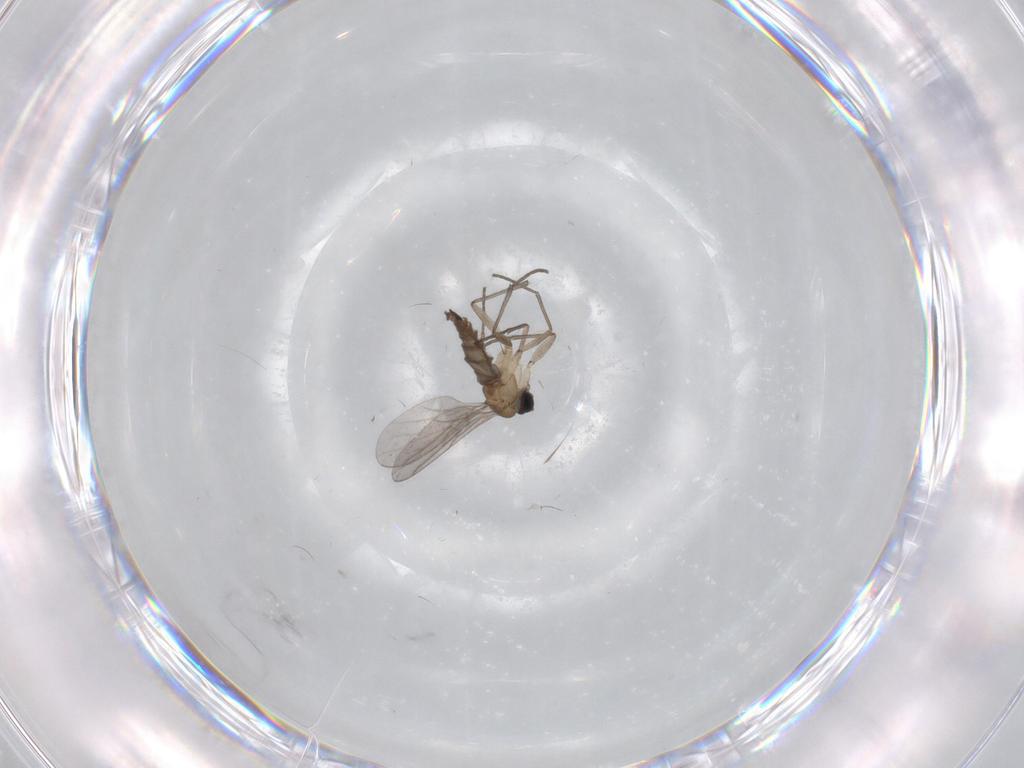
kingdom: Animalia
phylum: Arthropoda
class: Insecta
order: Diptera
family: Sciaridae
